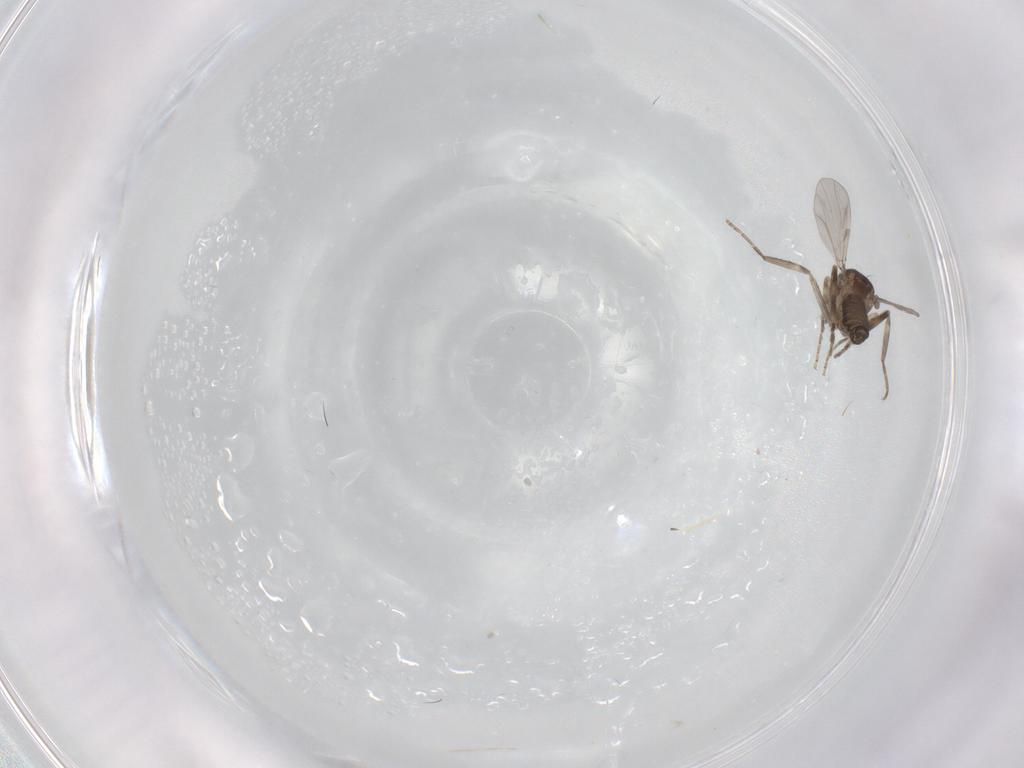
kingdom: Animalia
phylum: Arthropoda
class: Insecta
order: Diptera
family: Ceratopogonidae
